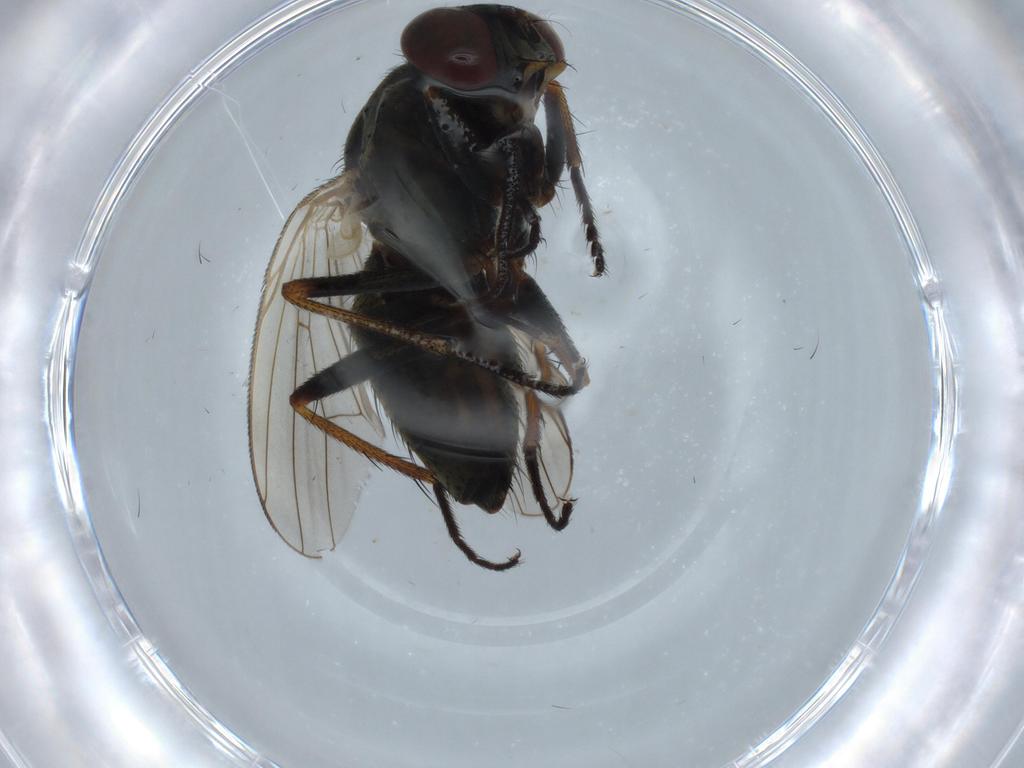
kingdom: Animalia
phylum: Arthropoda
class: Insecta
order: Diptera
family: Muscidae
